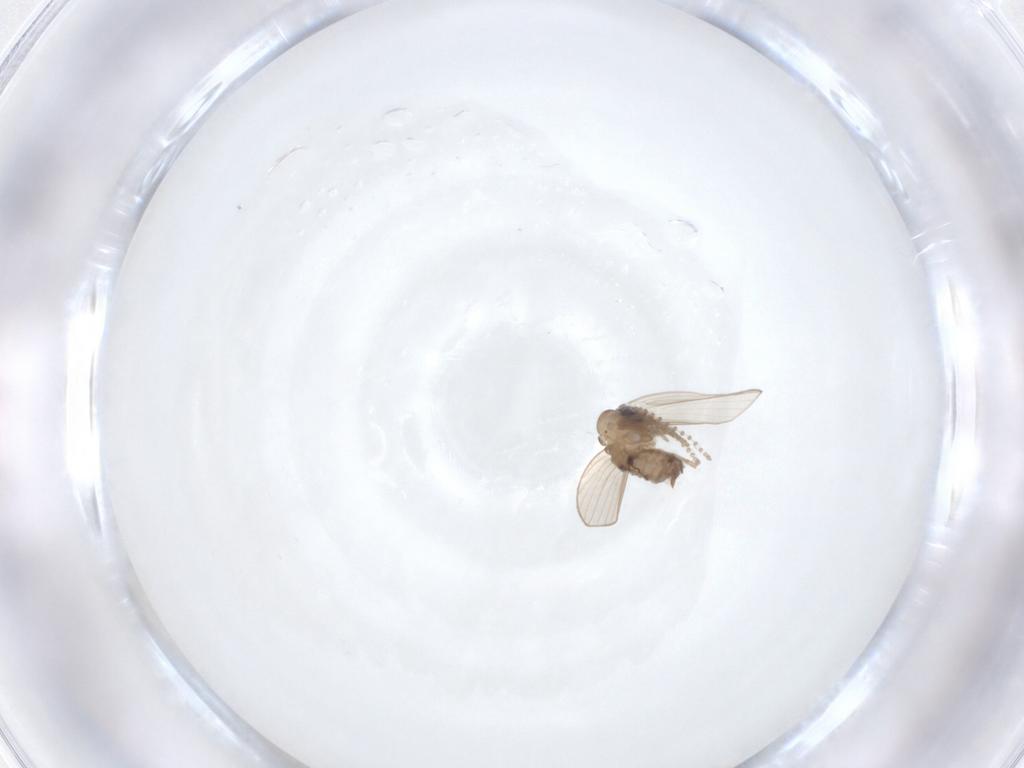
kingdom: Animalia
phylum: Arthropoda
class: Insecta
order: Diptera
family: Psychodidae
